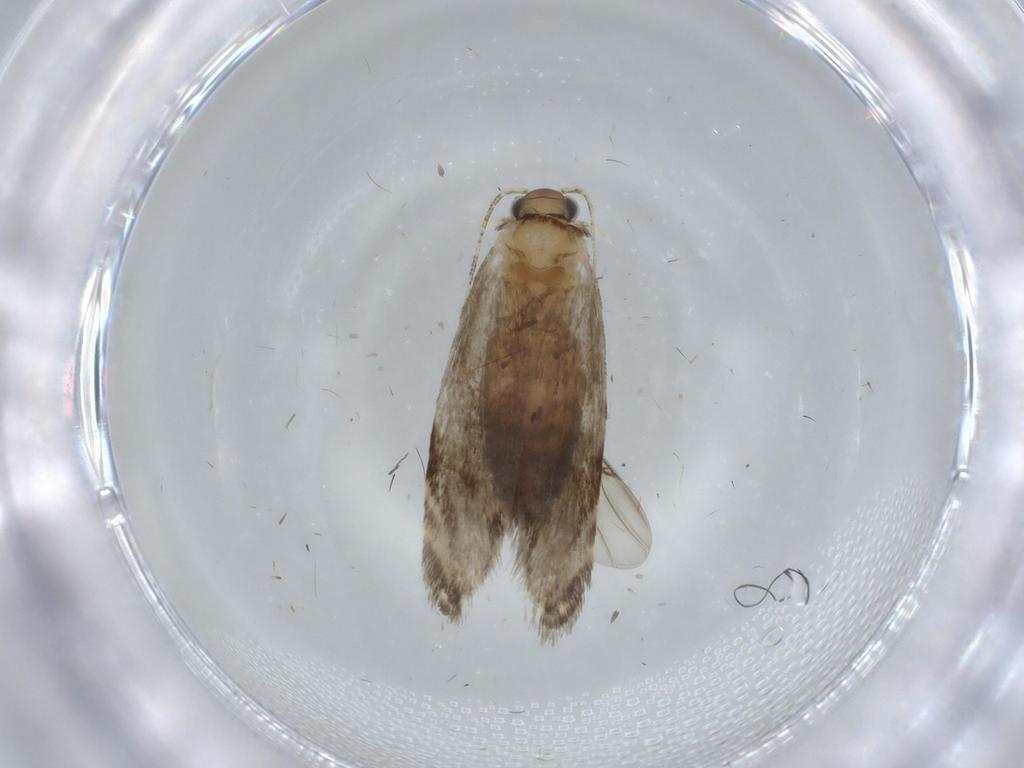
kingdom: Animalia
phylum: Arthropoda
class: Insecta
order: Lepidoptera
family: Tineidae
